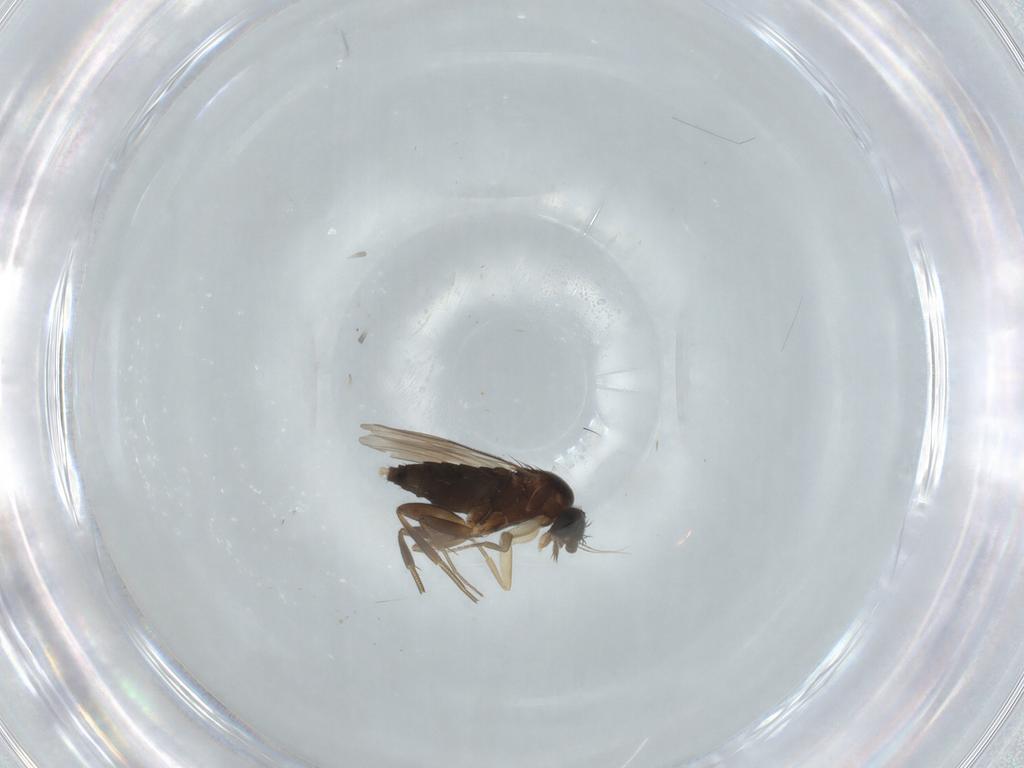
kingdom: Animalia
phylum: Arthropoda
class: Insecta
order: Diptera
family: Phoridae
